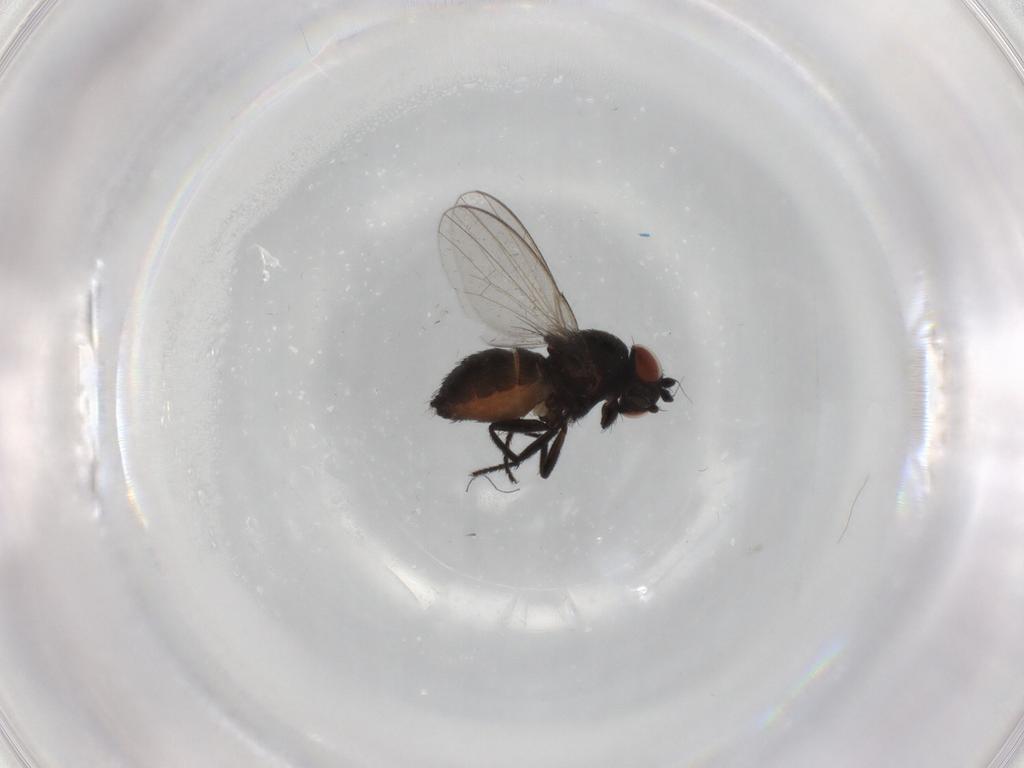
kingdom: Animalia
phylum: Arthropoda
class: Insecta
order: Diptera
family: Milichiidae
